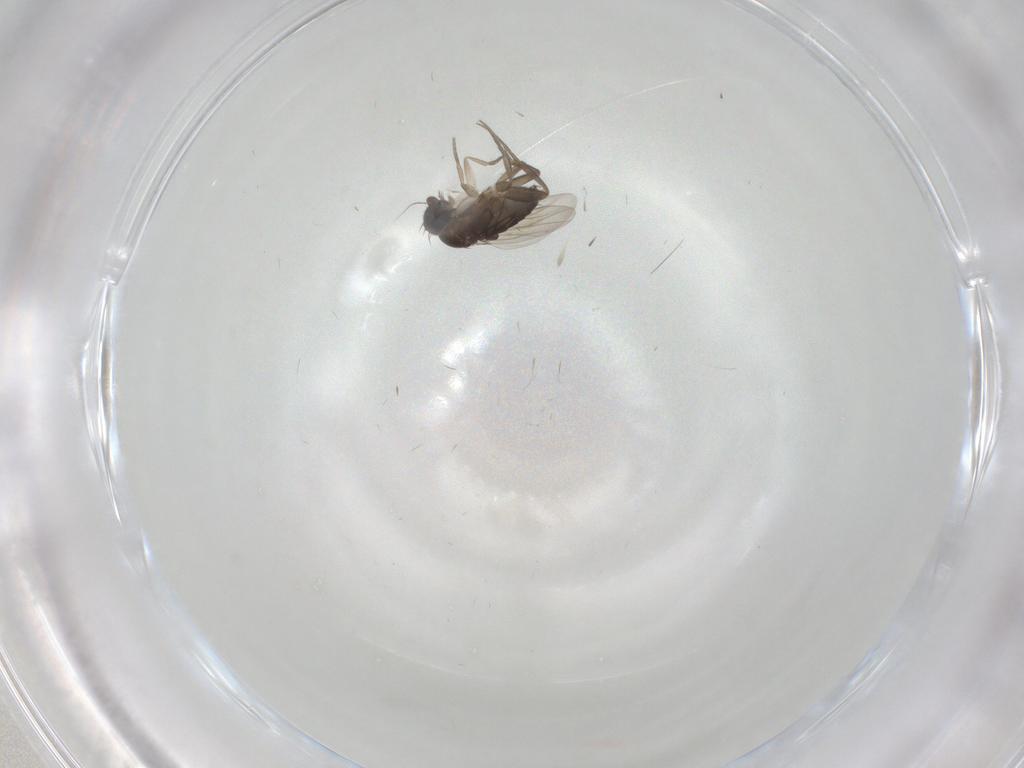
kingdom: Animalia
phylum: Arthropoda
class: Insecta
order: Diptera
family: Phoridae
